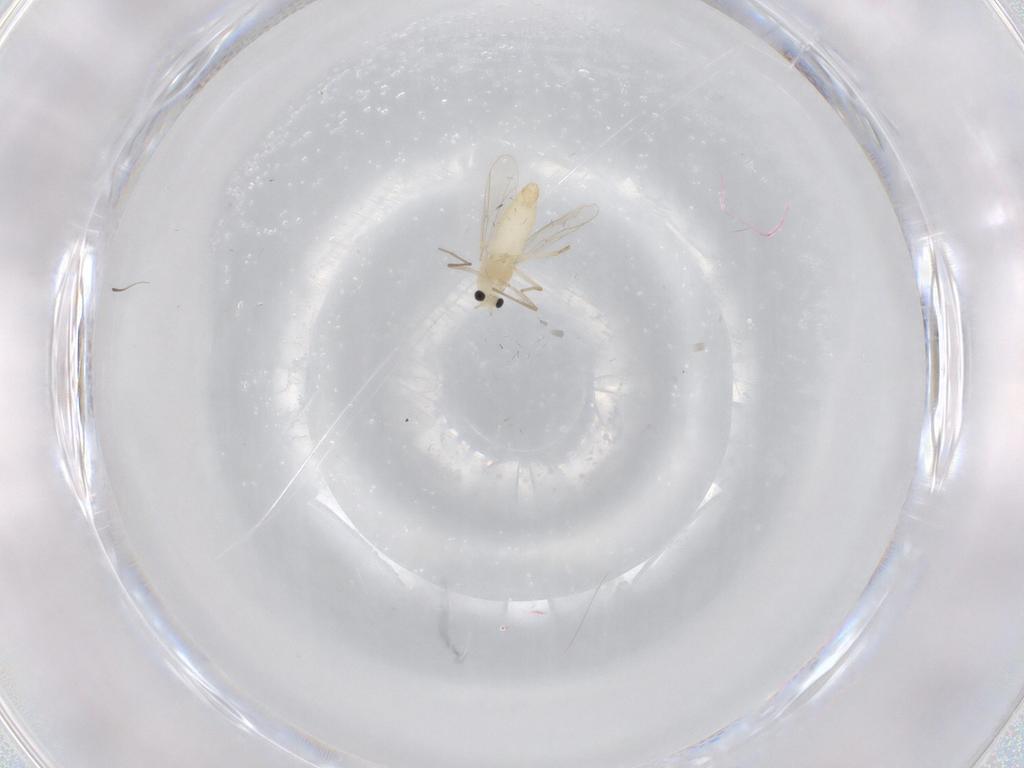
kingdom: Animalia
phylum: Arthropoda
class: Insecta
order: Diptera
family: Chironomidae
